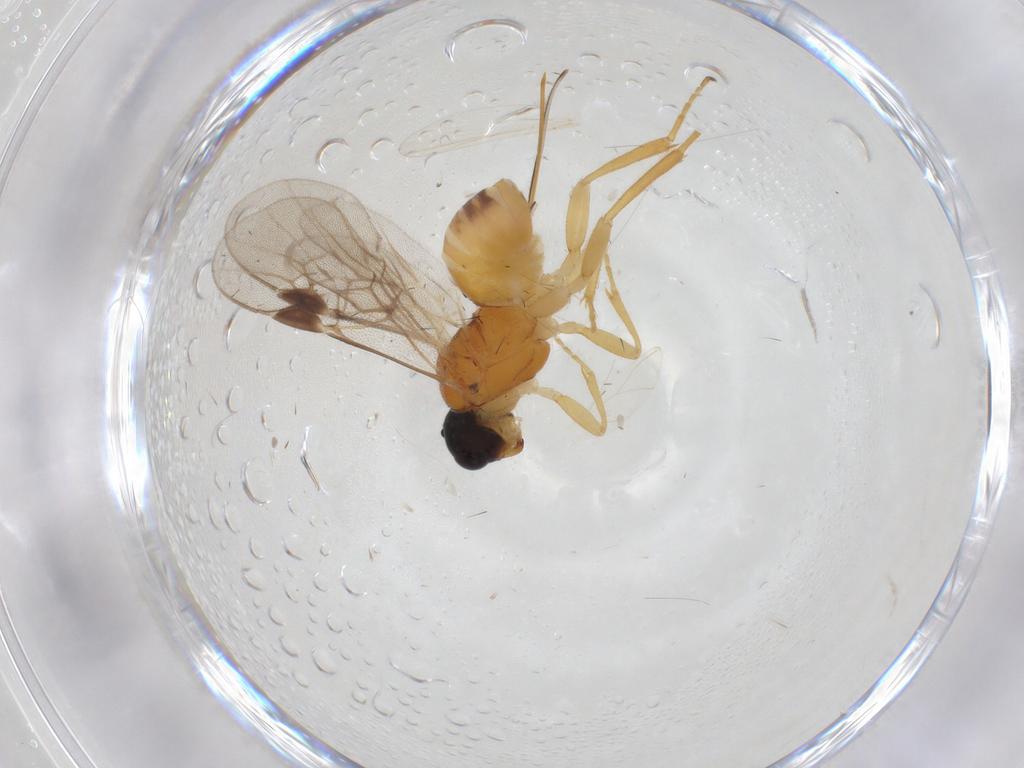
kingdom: Animalia
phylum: Arthropoda
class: Insecta
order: Hymenoptera
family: Braconidae
